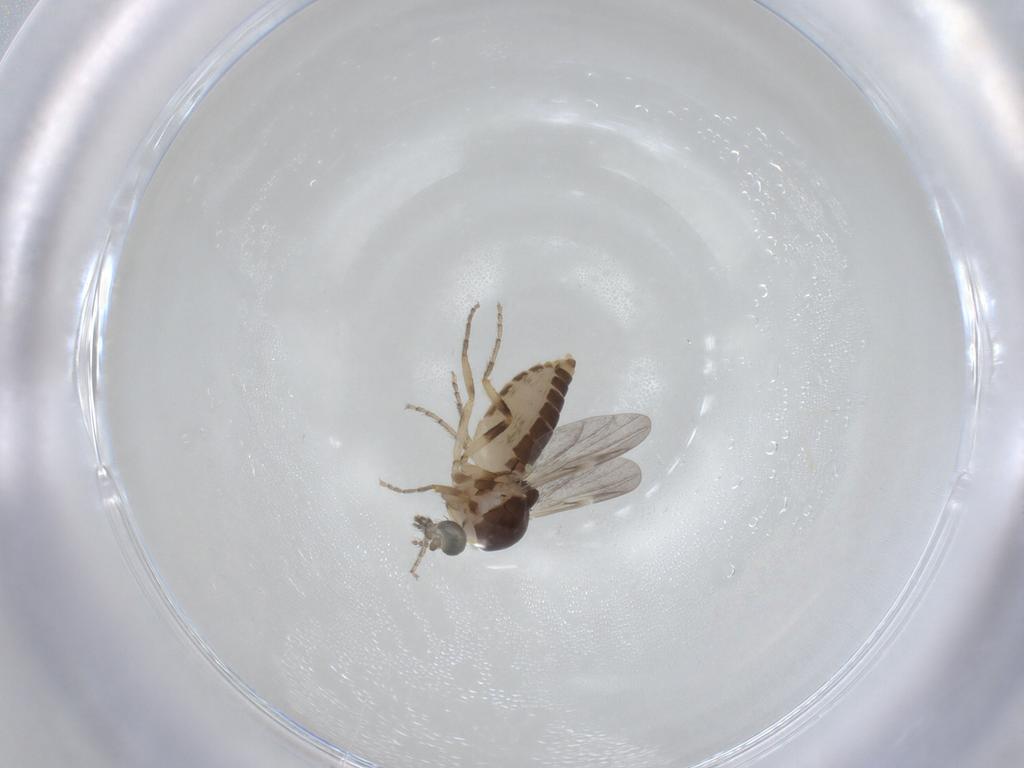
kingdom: Animalia
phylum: Arthropoda
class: Insecta
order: Diptera
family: Ceratopogonidae
